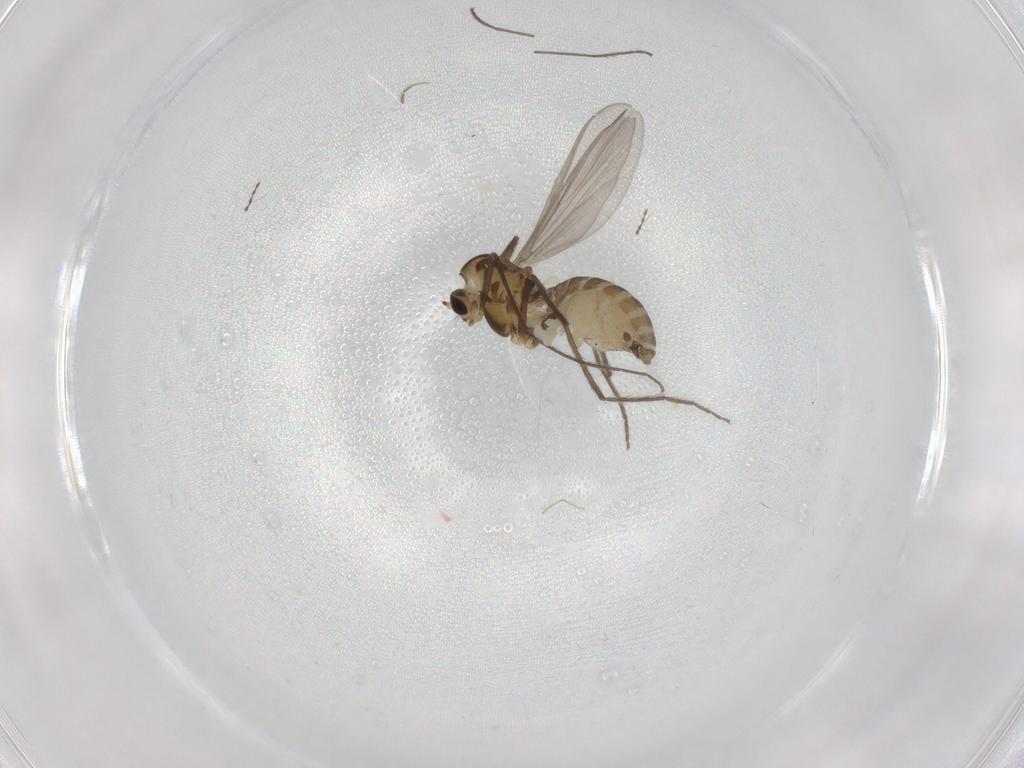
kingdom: Animalia
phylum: Arthropoda
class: Insecta
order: Diptera
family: Chironomidae
